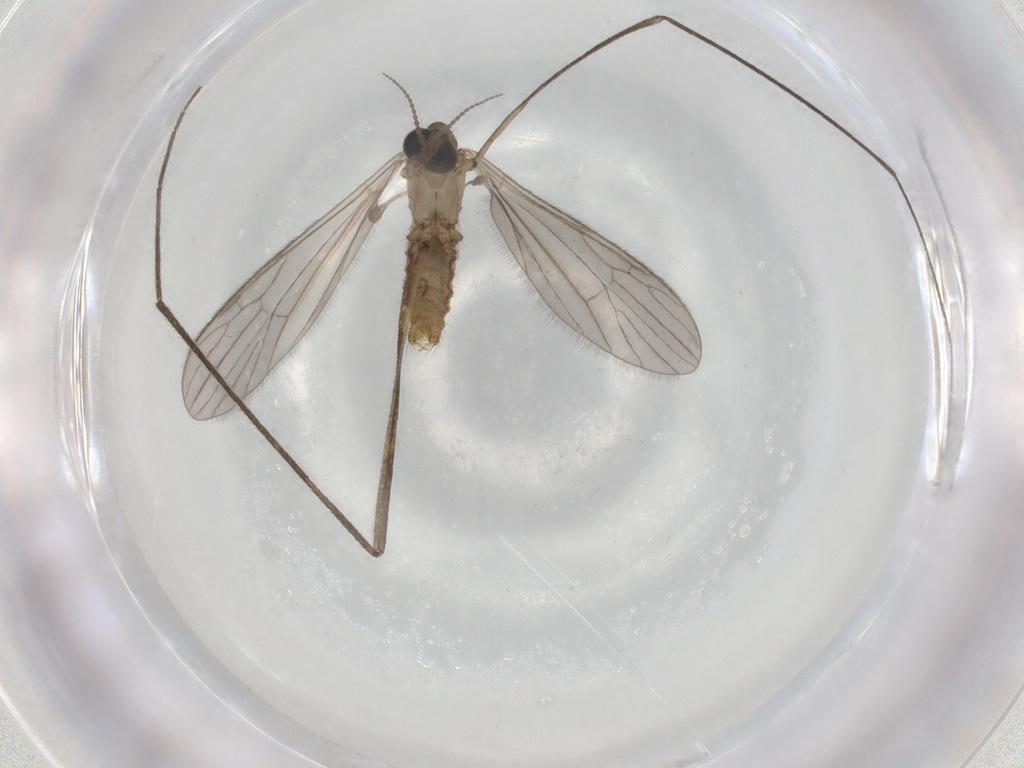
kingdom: Animalia
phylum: Arthropoda
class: Insecta
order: Diptera
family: Limoniidae
